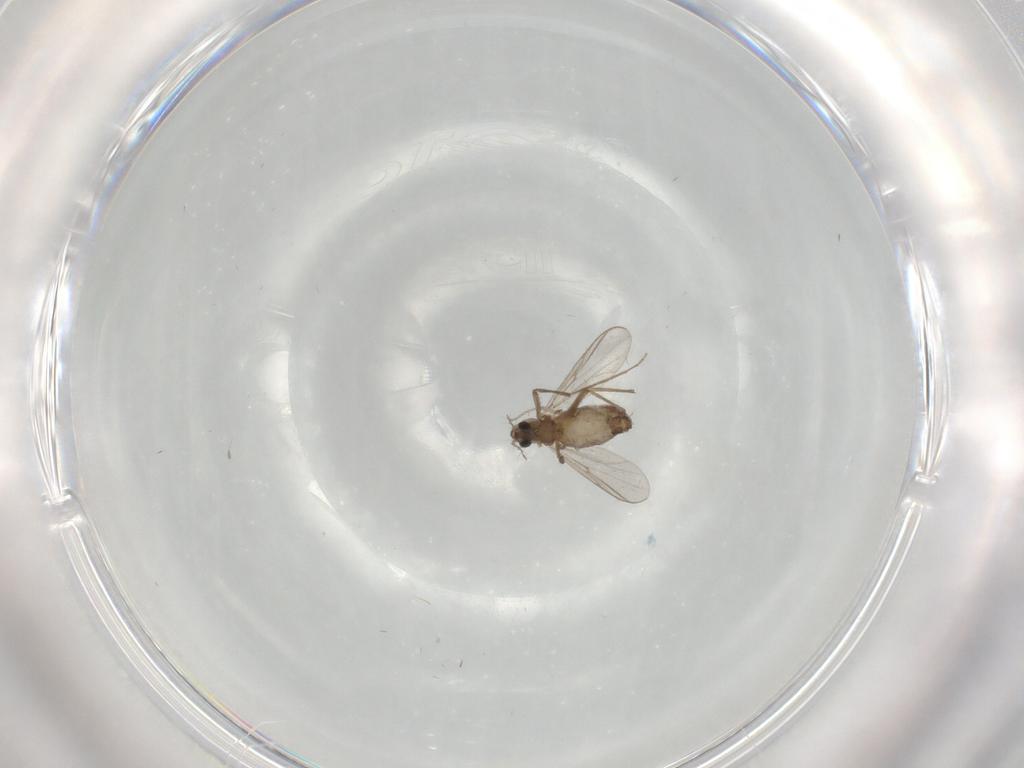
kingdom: Animalia
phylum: Arthropoda
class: Insecta
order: Diptera
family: Chironomidae
